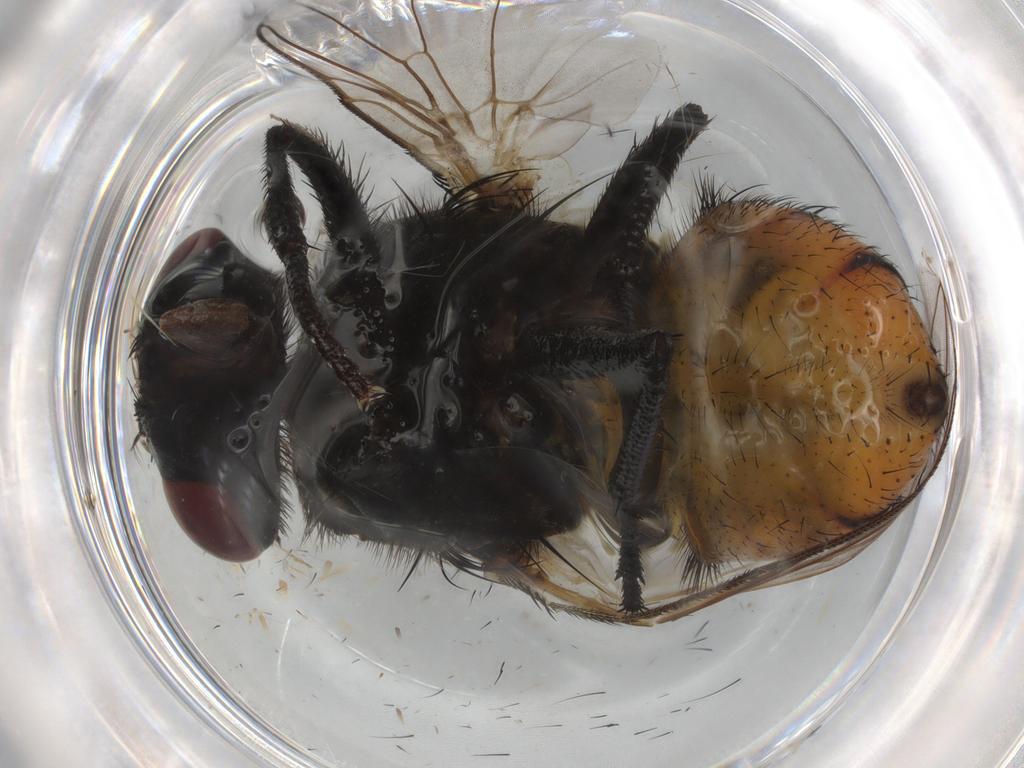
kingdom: Animalia
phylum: Arthropoda
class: Insecta
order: Diptera
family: Muscidae
